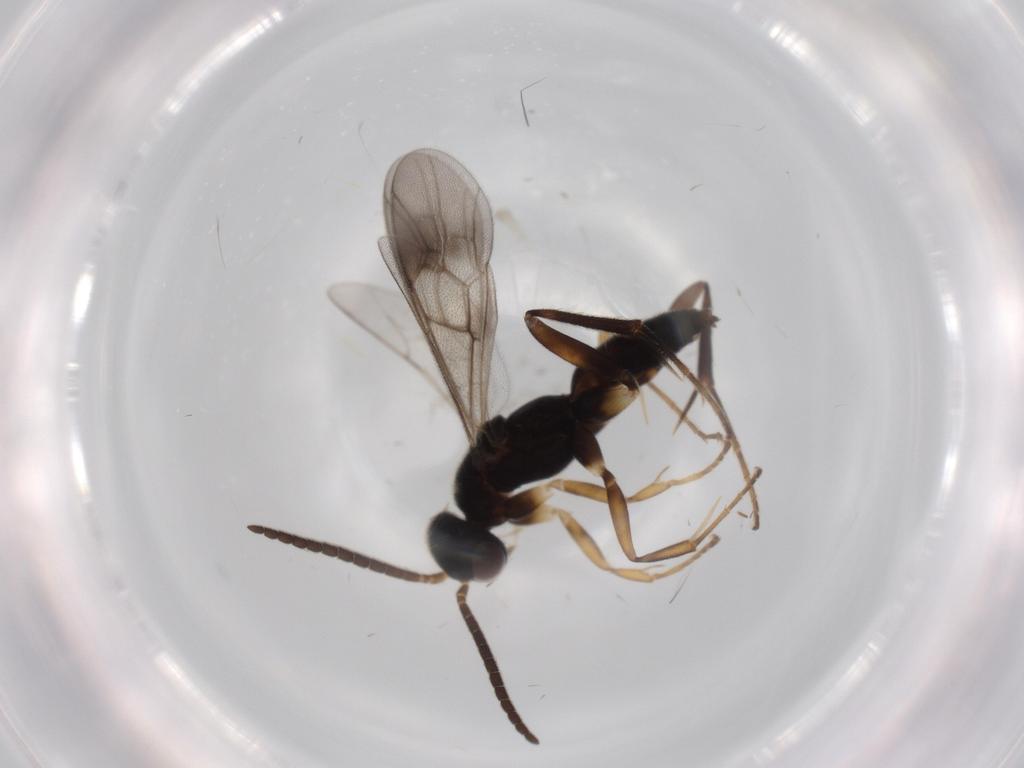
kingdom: Animalia
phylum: Arthropoda
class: Insecta
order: Hymenoptera
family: Pompilidae
